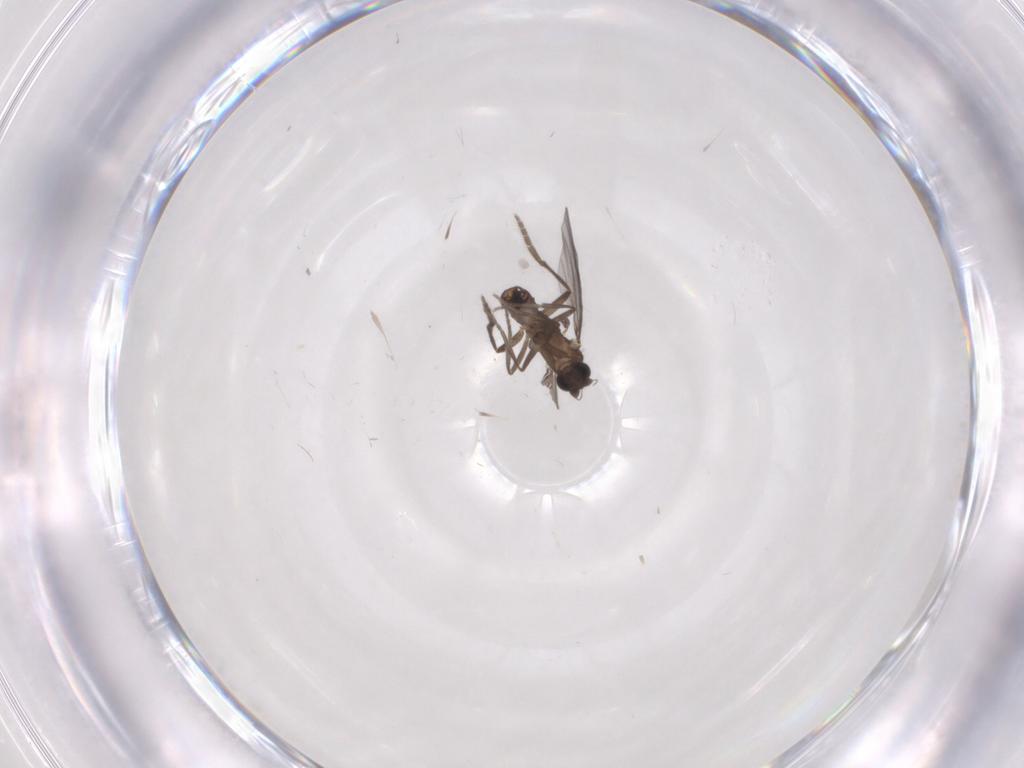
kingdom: Animalia
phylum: Arthropoda
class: Insecta
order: Diptera
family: Phoridae
